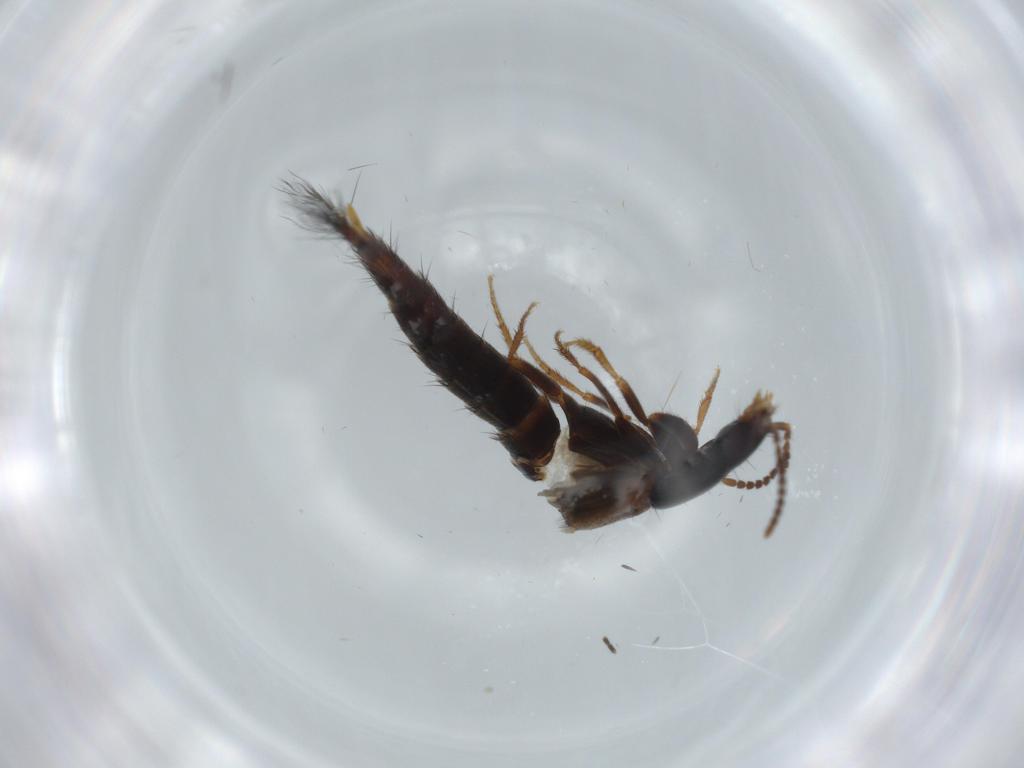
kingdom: Animalia
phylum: Arthropoda
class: Insecta
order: Coleoptera
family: Staphylinidae
